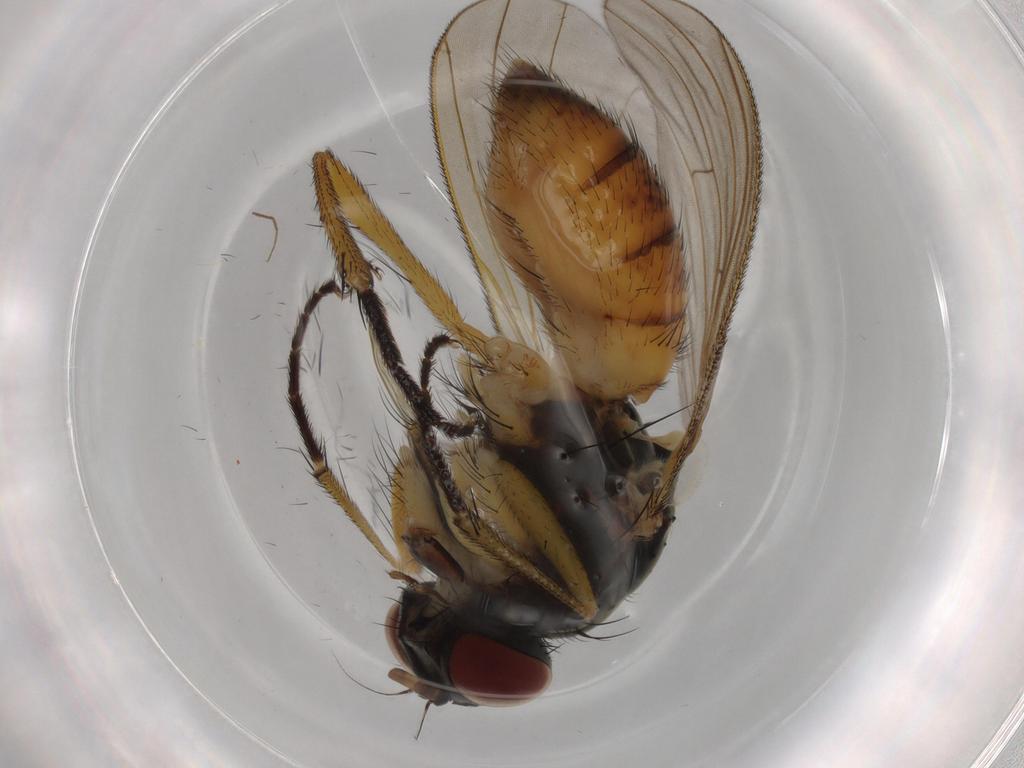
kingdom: Animalia
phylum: Arthropoda
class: Insecta
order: Diptera
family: Muscidae
